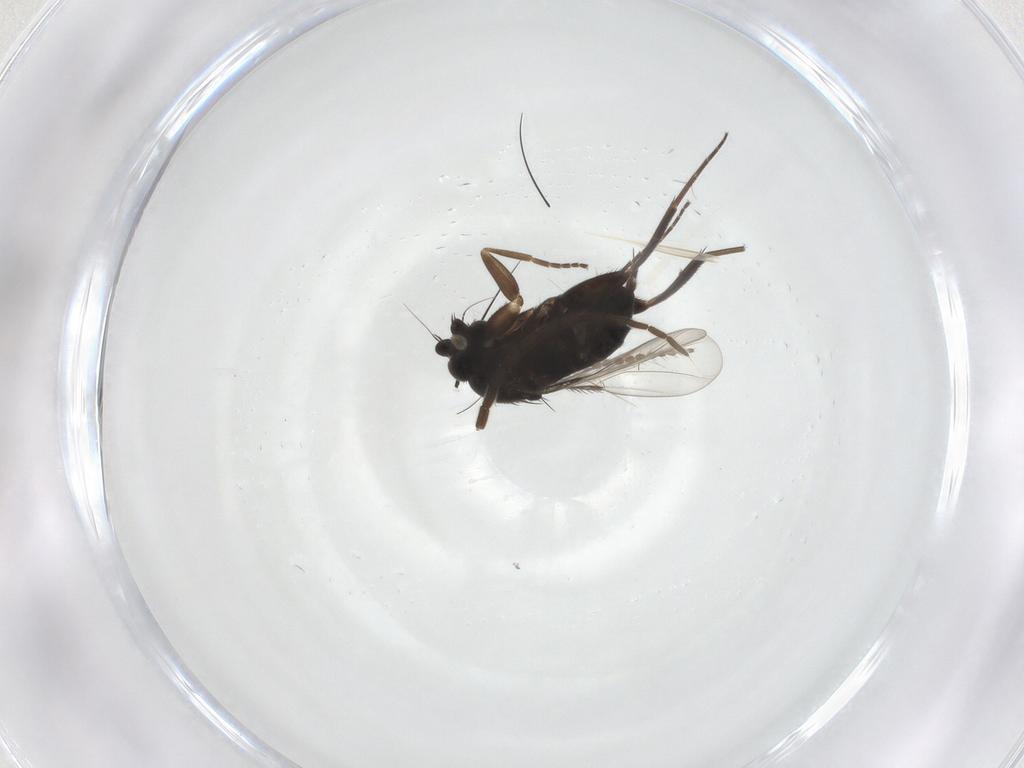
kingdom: Animalia
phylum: Arthropoda
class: Insecta
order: Diptera
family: Mycetophilidae
